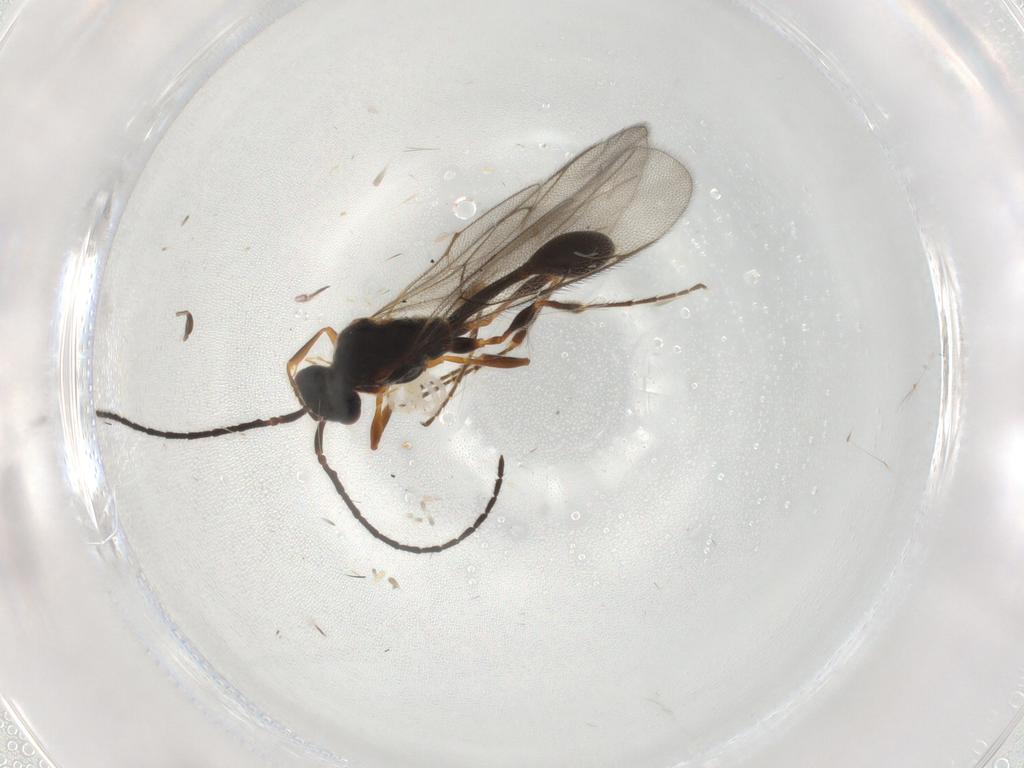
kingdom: Animalia
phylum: Arthropoda
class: Insecta
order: Hymenoptera
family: Diapriidae
